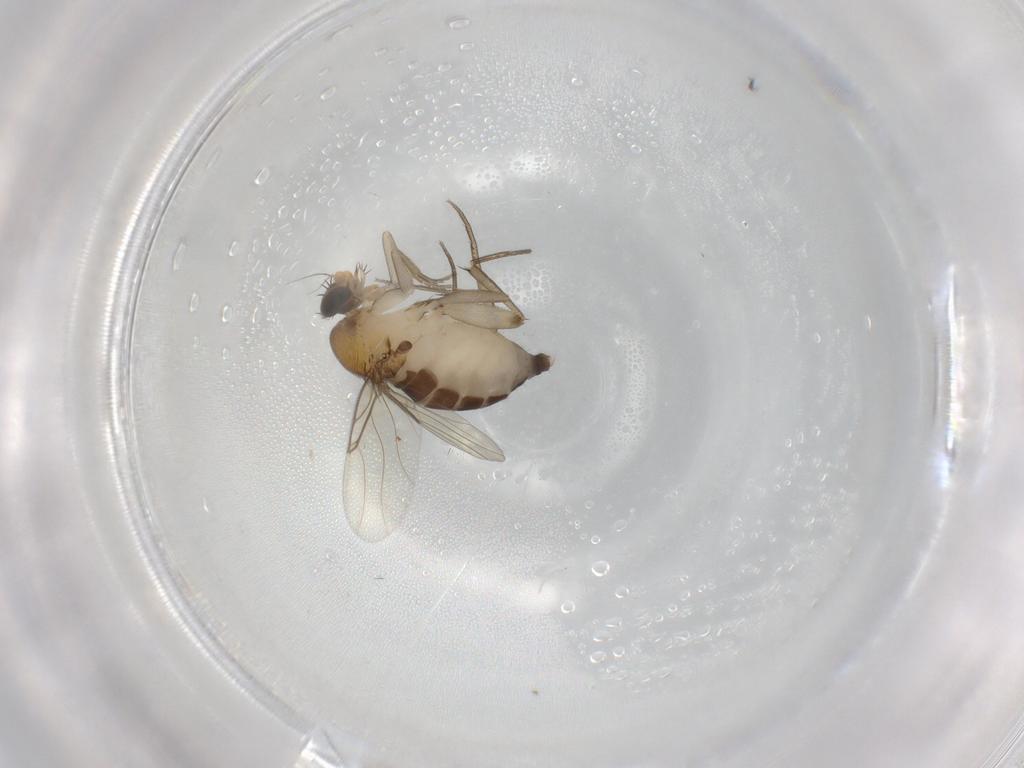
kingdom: Animalia
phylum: Arthropoda
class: Insecta
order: Diptera
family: Phoridae
